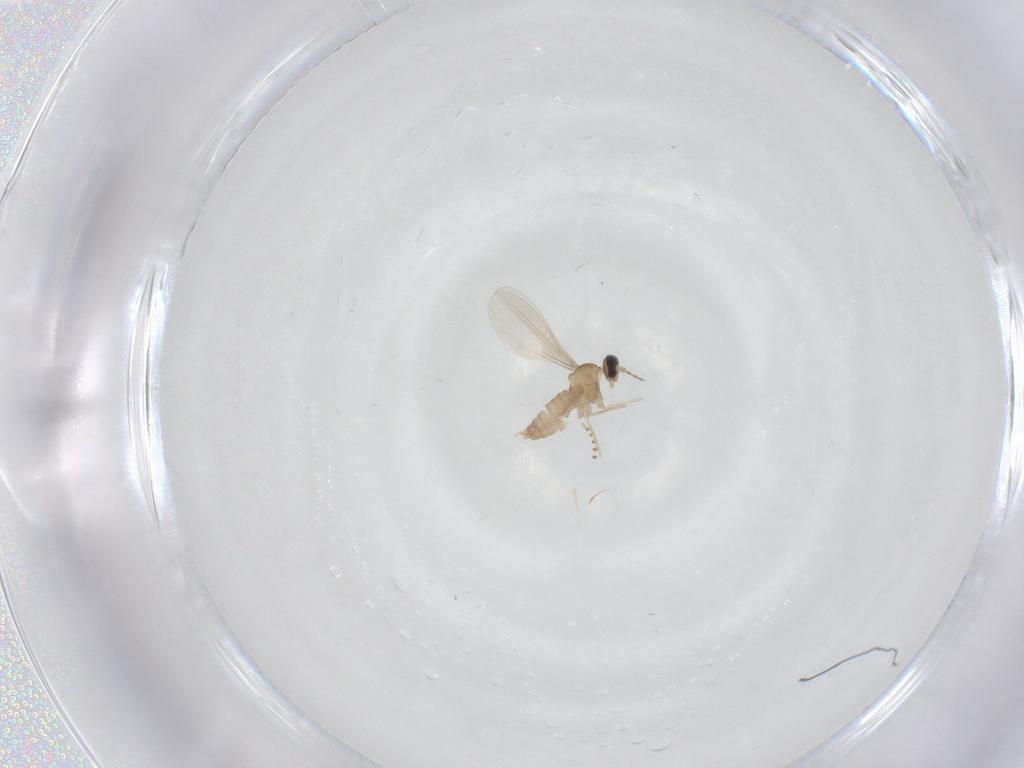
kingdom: Animalia
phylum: Arthropoda
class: Insecta
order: Diptera
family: Cecidomyiidae
